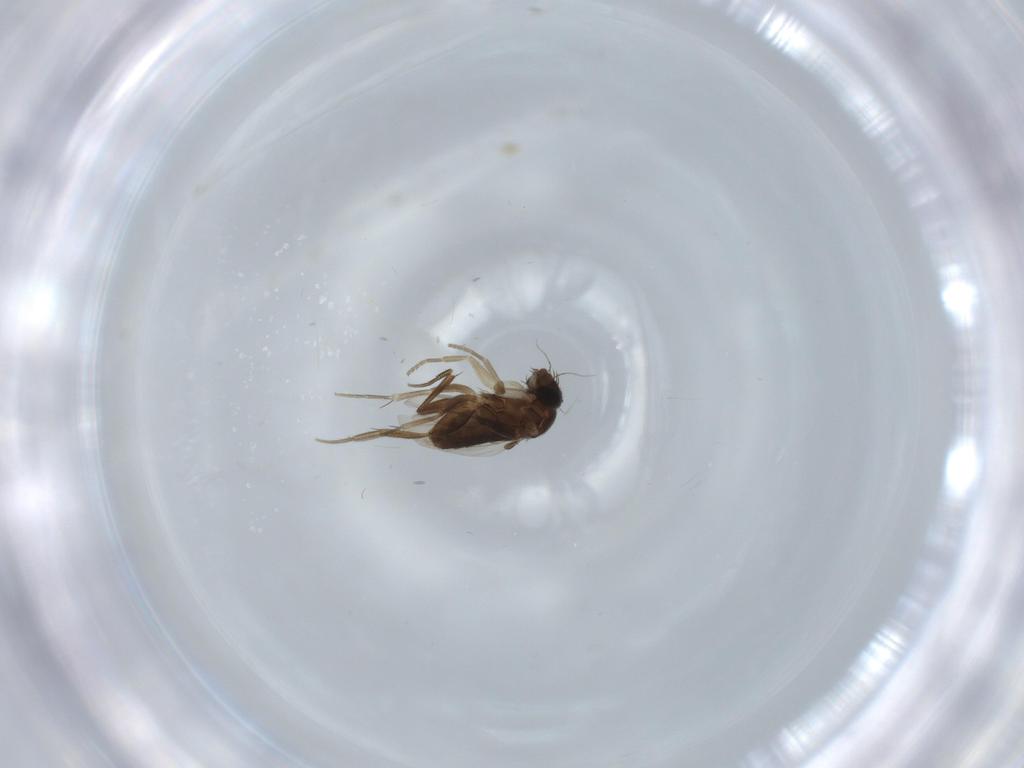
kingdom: Animalia
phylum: Arthropoda
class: Insecta
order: Diptera
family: Phoridae
